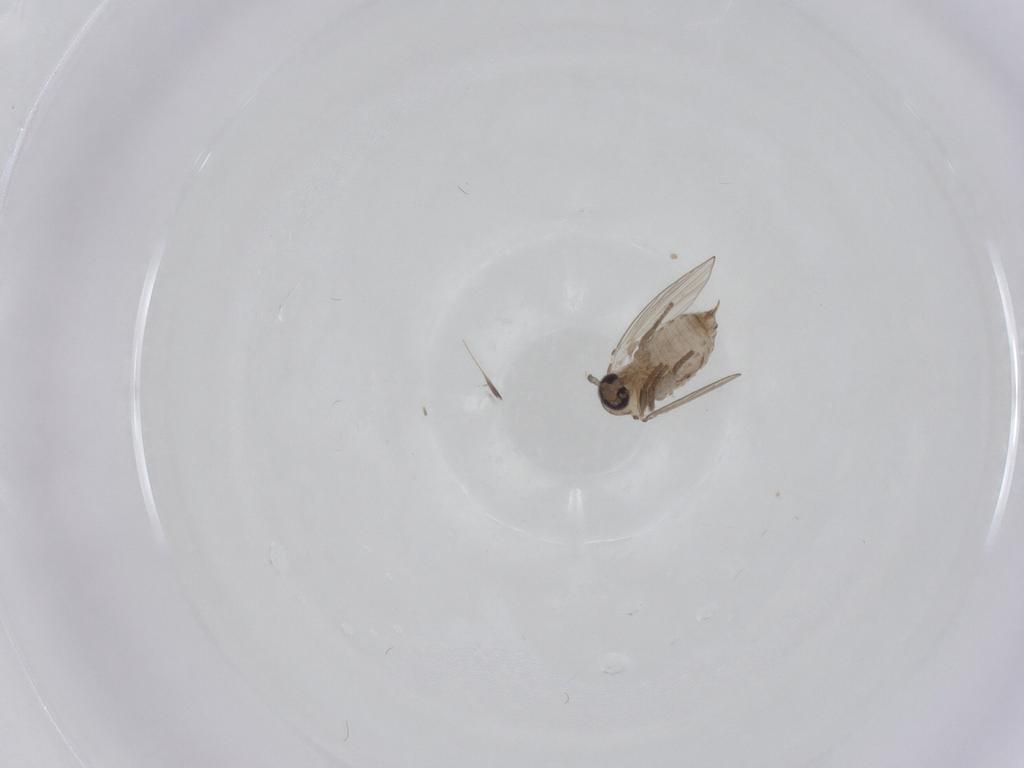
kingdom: Animalia
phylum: Arthropoda
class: Insecta
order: Diptera
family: Psychodidae
